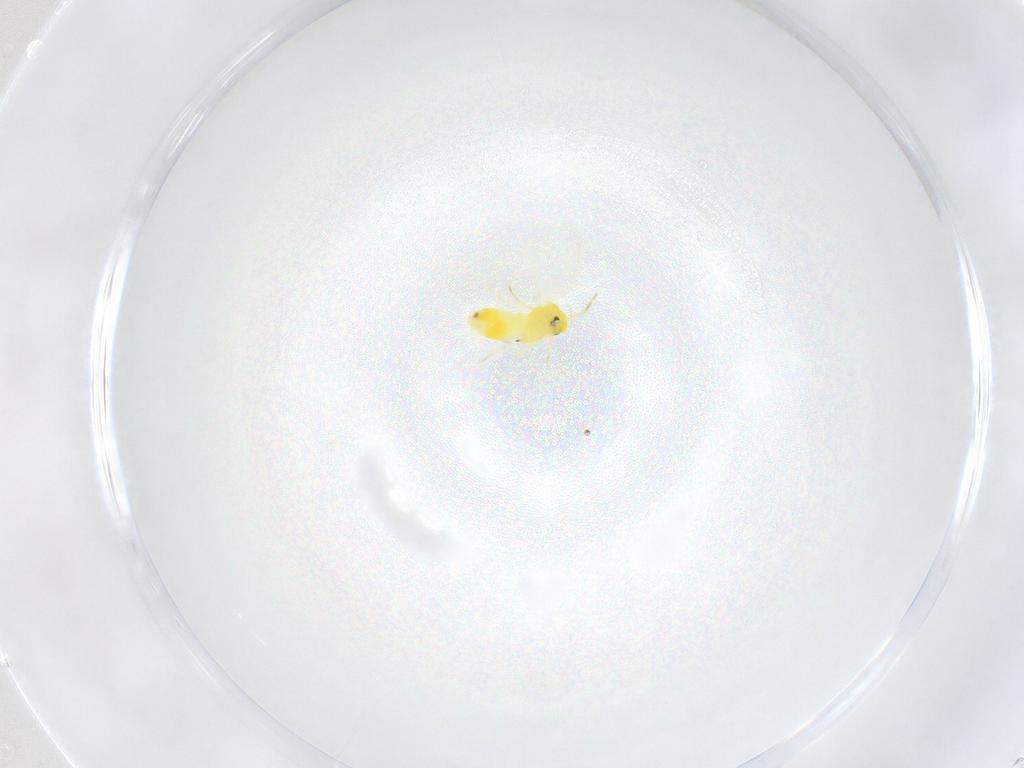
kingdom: Animalia
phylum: Arthropoda
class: Insecta
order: Hemiptera
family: Aleyrodidae
